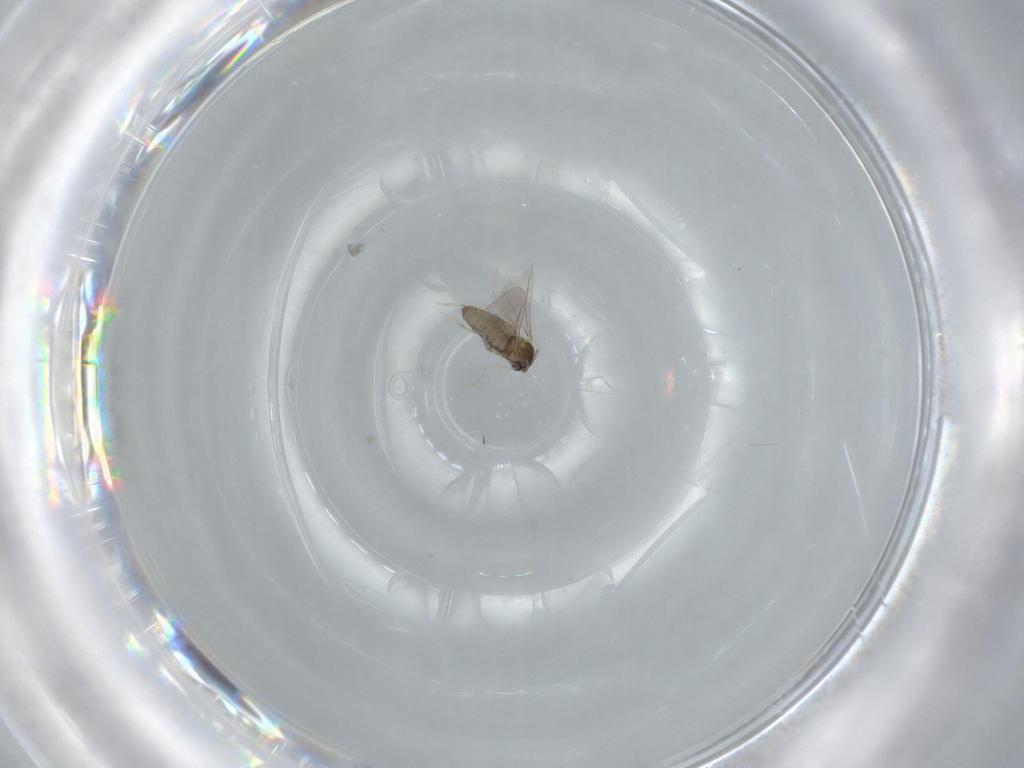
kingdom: Animalia
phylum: Arthropoda
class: Insecta
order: Diptera
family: Cecidomyiidae
